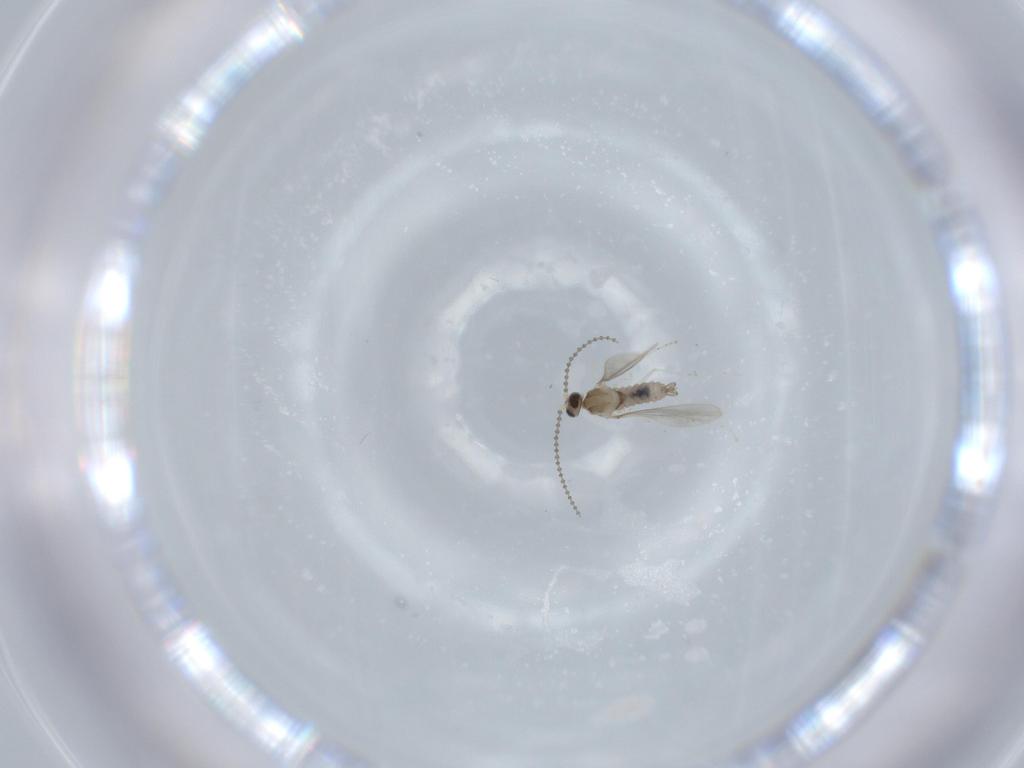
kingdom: Animalia
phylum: Arthropoda
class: Insecta
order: Diptera
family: Cecidomyiidae
